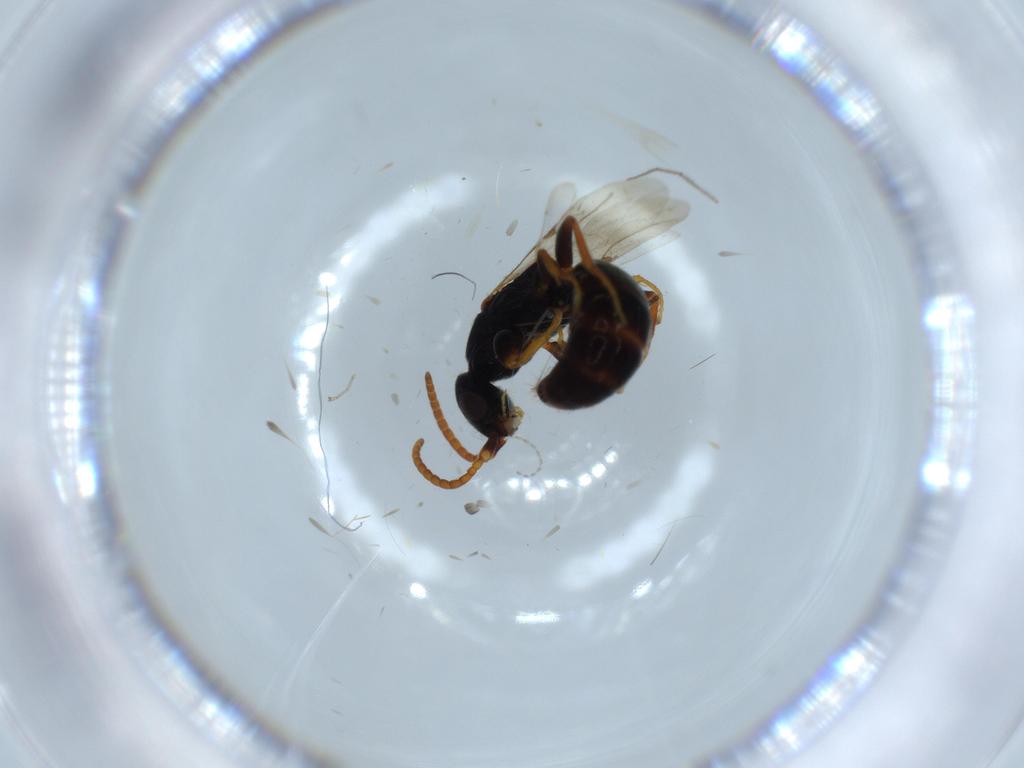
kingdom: Animalia
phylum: Arthropoda
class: Insecta
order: Hymenoptera
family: Bethylidae
